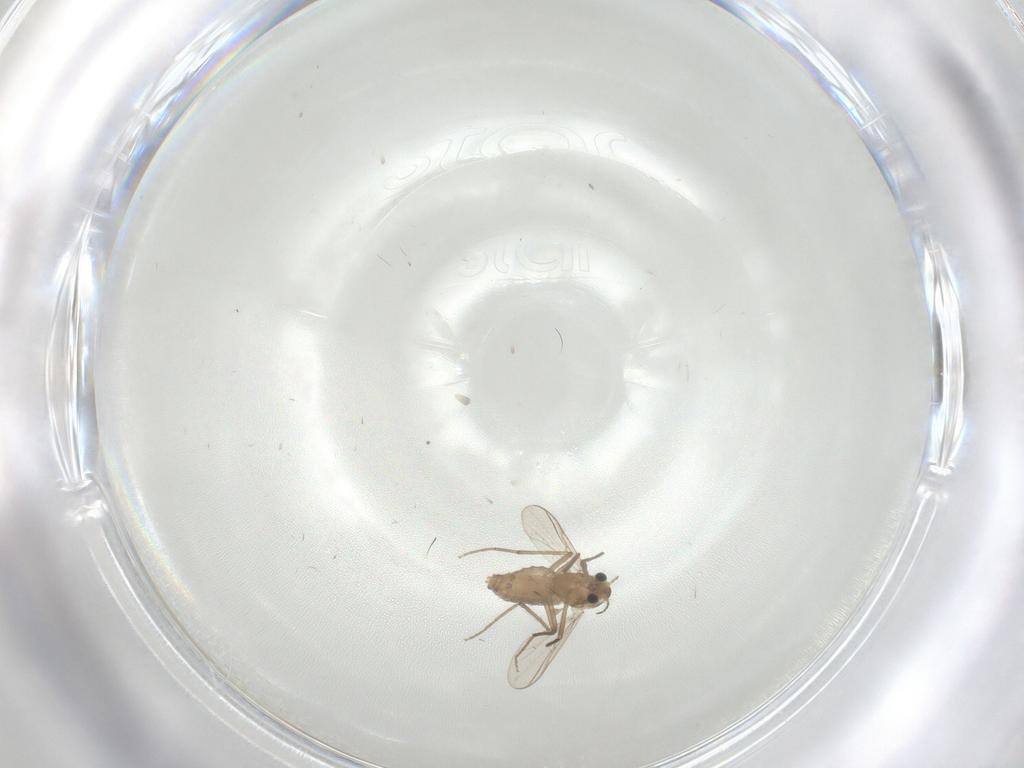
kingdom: Animalia
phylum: Arthropoda
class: Insecta
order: Diptera
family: Chironomidae
